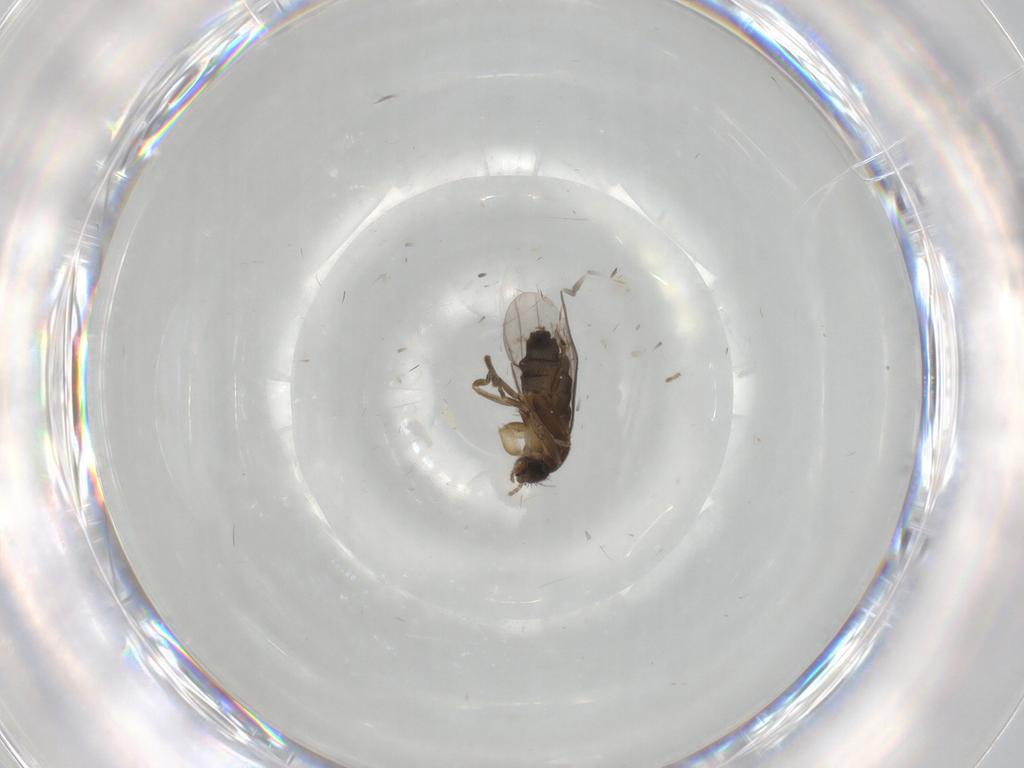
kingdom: Animalia
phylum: Arthropoda
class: Insecta
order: Diptera
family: Phoridae
